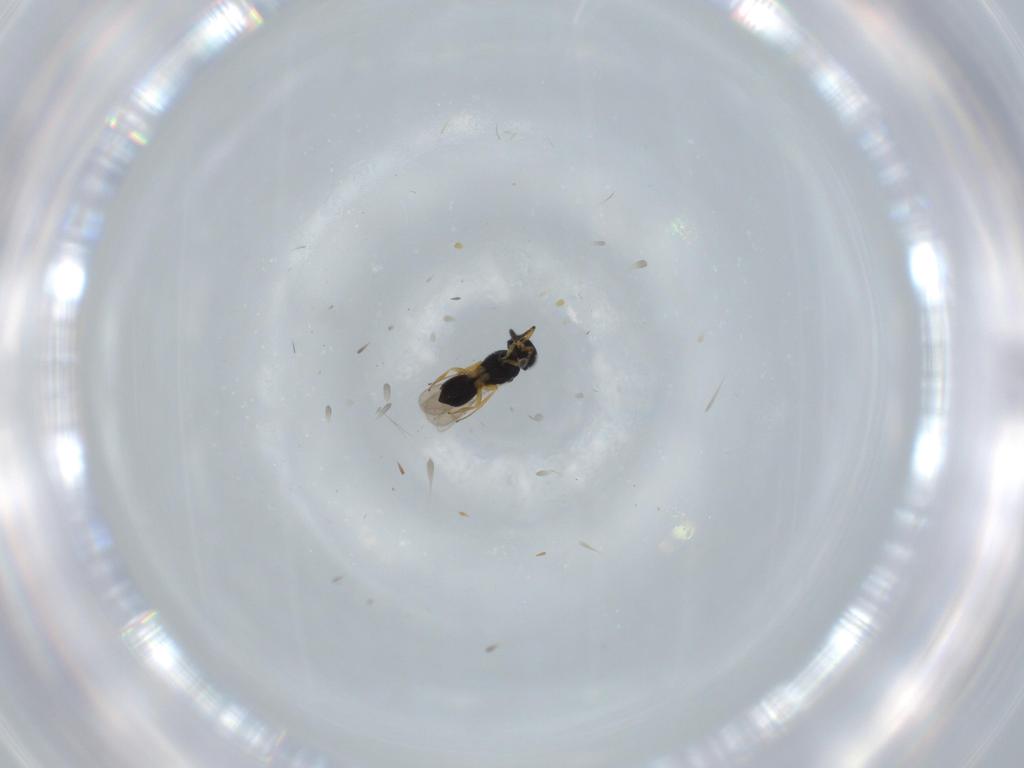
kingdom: Animalia
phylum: Arthropoda
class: Insecta
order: Hymenoptera
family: Scelionidae
